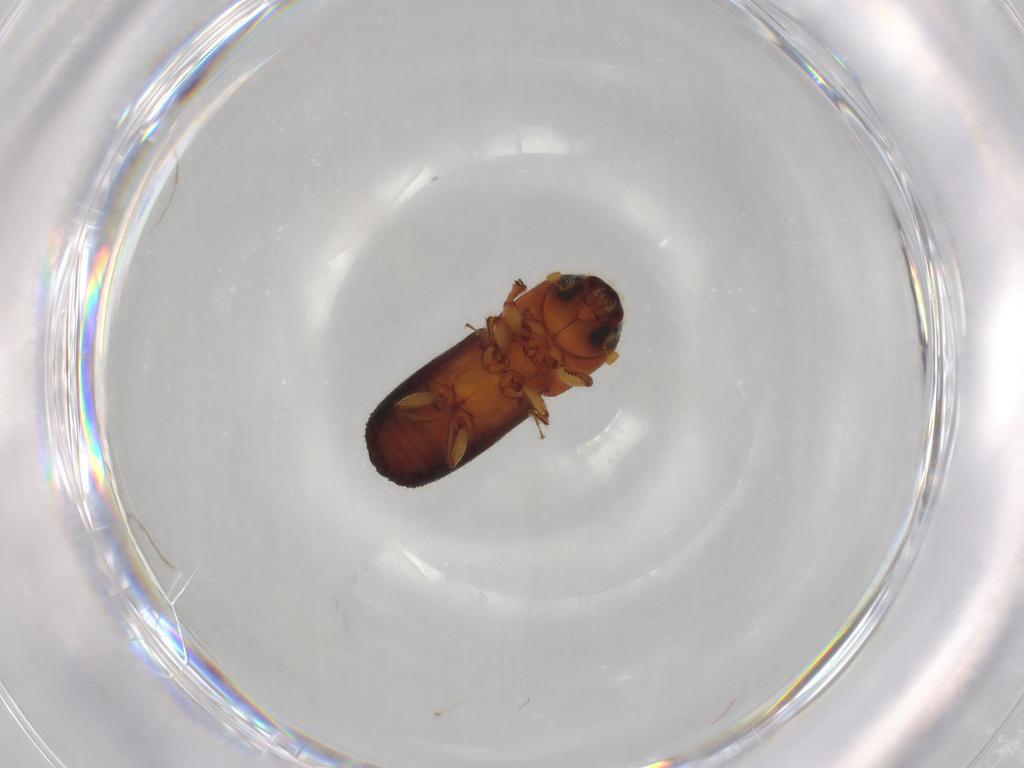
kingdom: Animalia
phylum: Arthropoda
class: Insecta
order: Coleoptera
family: Curculionidae
